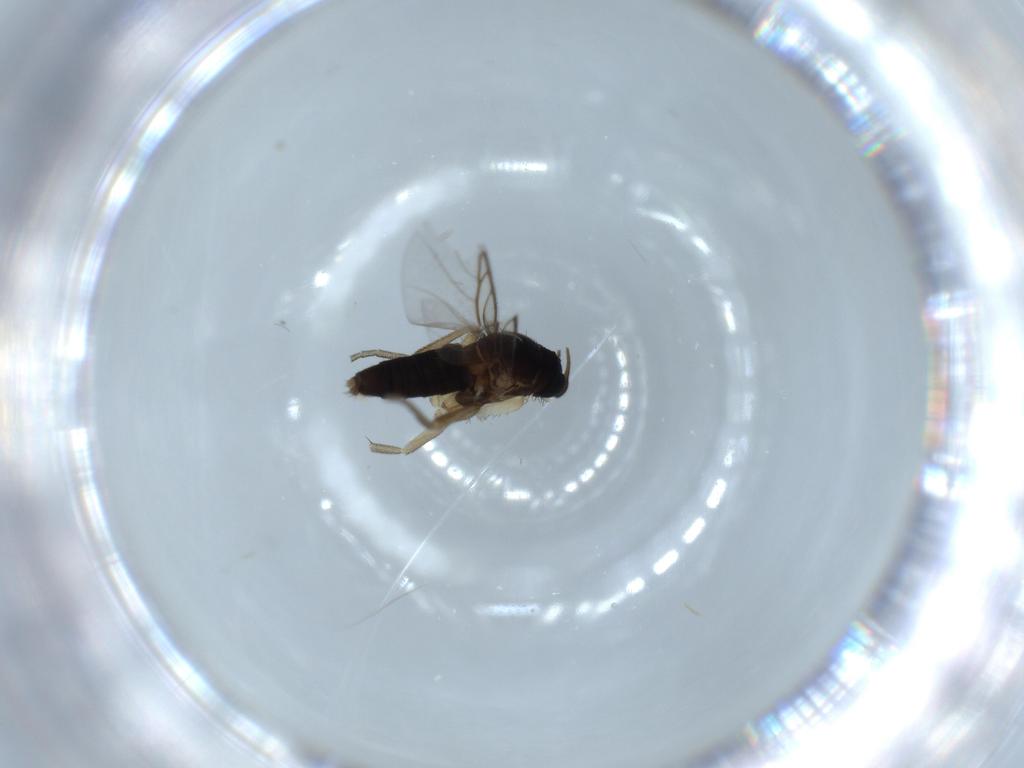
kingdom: Animalia
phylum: Arthropoda
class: Insecta
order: Diptera
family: Phoridae
